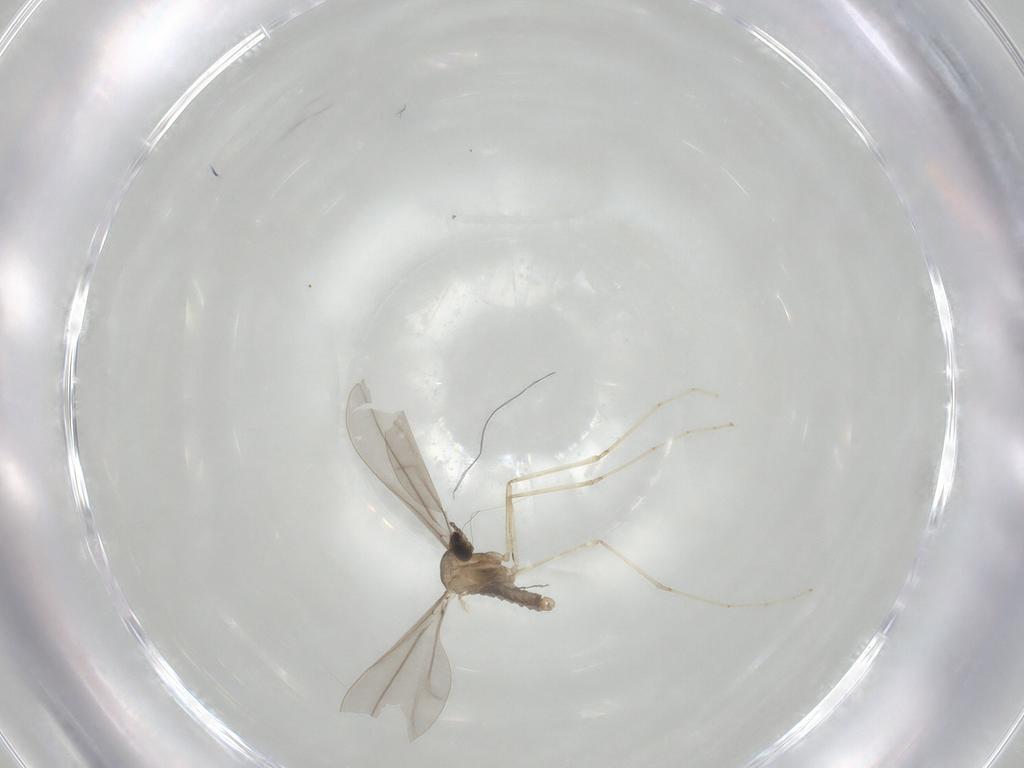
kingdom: Animalia
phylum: Arthropoda
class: Insecta
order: Diptera
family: Cecidomyiidae
